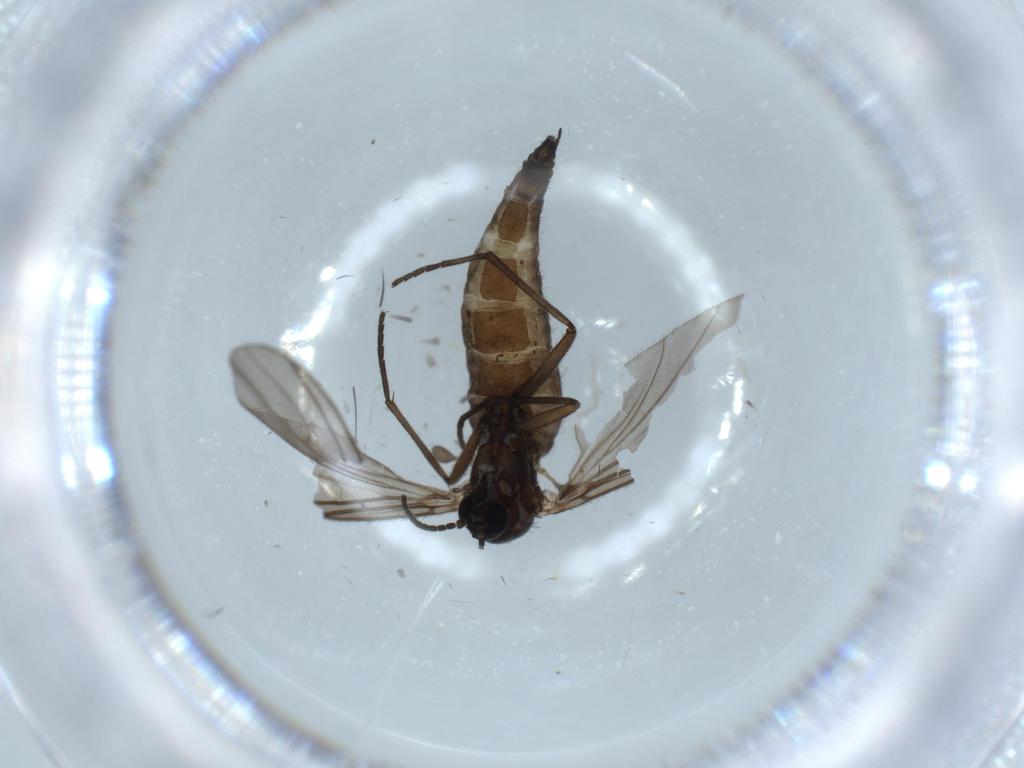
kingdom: Animalia
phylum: Arthropoda
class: Insecta
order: Diptera
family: Sciaridae
